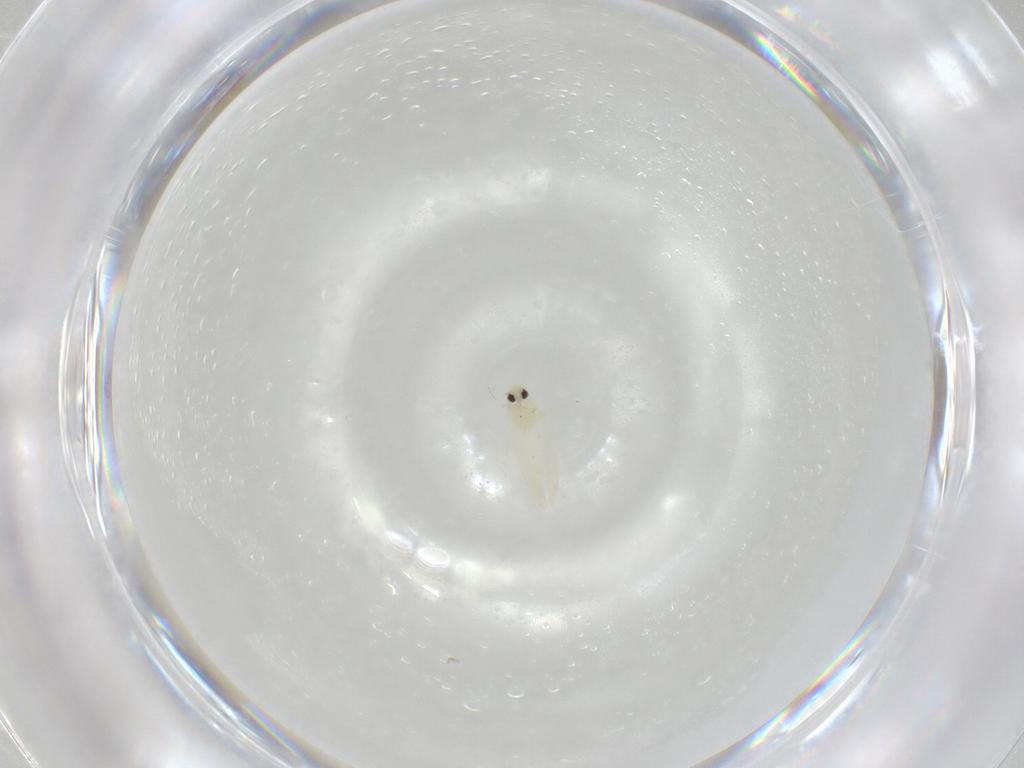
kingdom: Animalia
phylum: Arthropoda
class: Insecta
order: Hemiptera
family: Aleyrodidae
